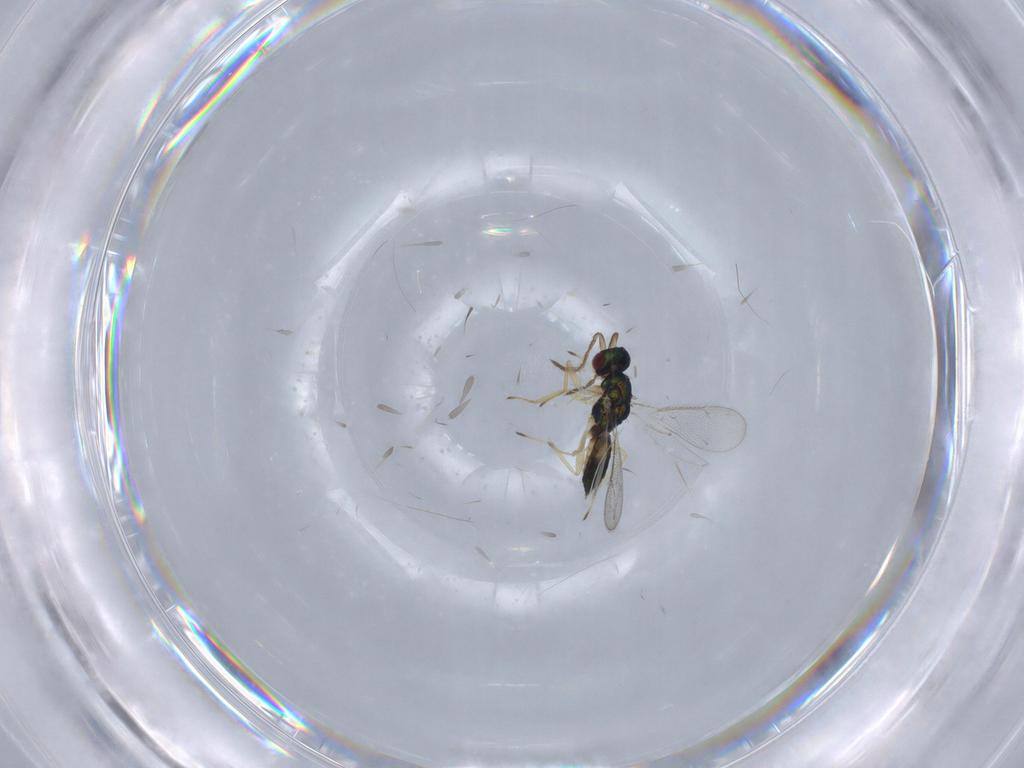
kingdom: Animalia
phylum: Arthropoda
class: Insecta
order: Hymenoptera
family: Eulophidae
